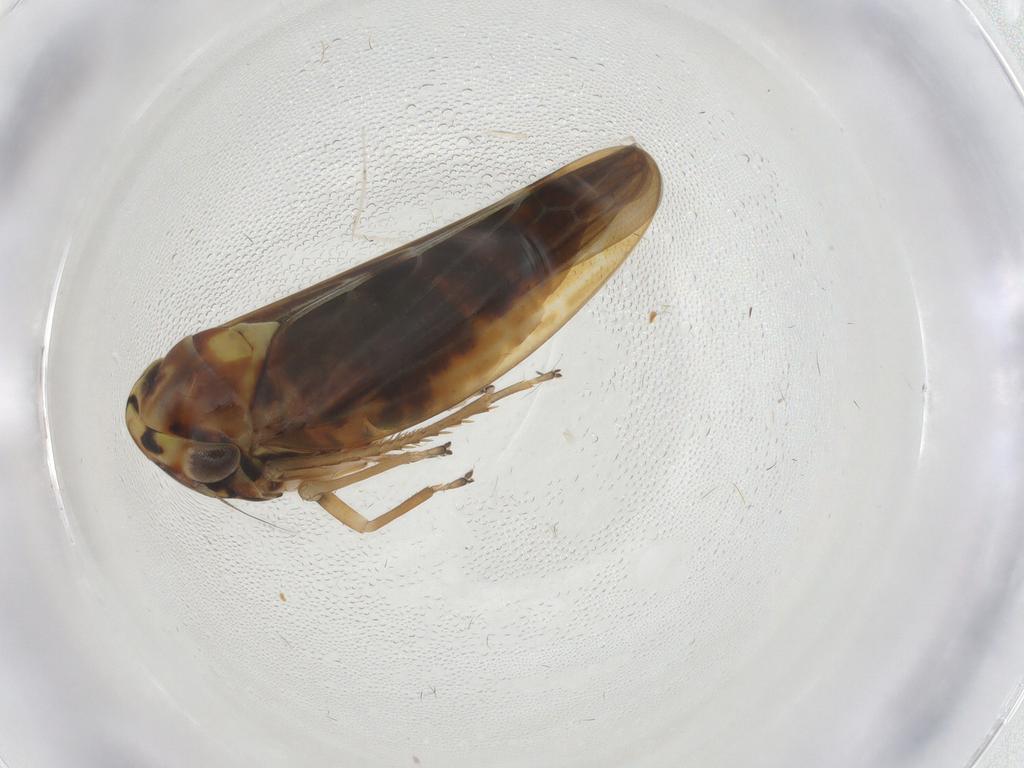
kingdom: Animalia
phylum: Arthropoda
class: Insecta
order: Hemiptera
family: Cicadellidae
